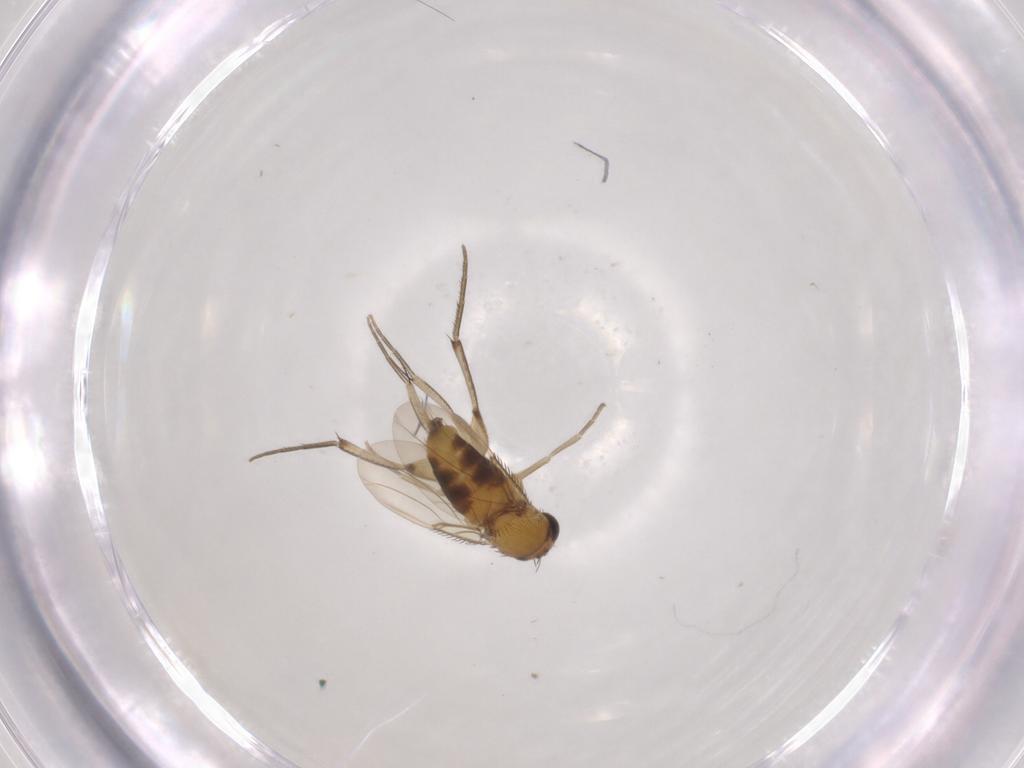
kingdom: Animalia
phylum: Arthropoda
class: Insecta
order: Diptera
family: Phoridae
